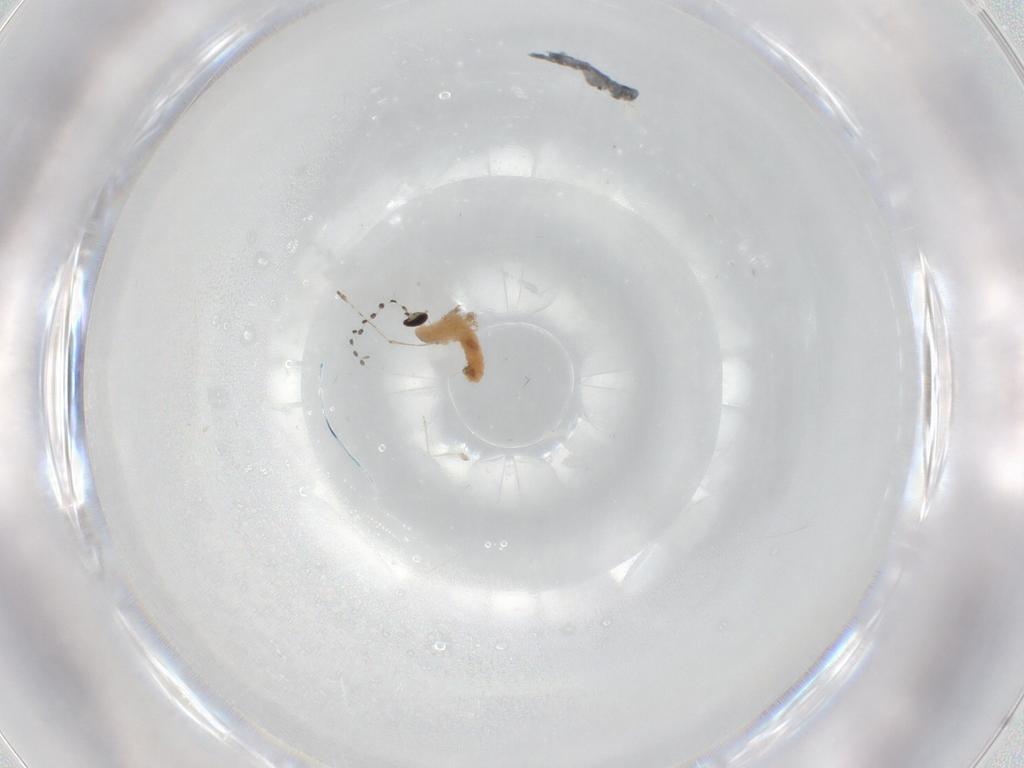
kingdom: Animalia
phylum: Arthropoda
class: Insecta
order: Diptera
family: Cecidomyiidae
